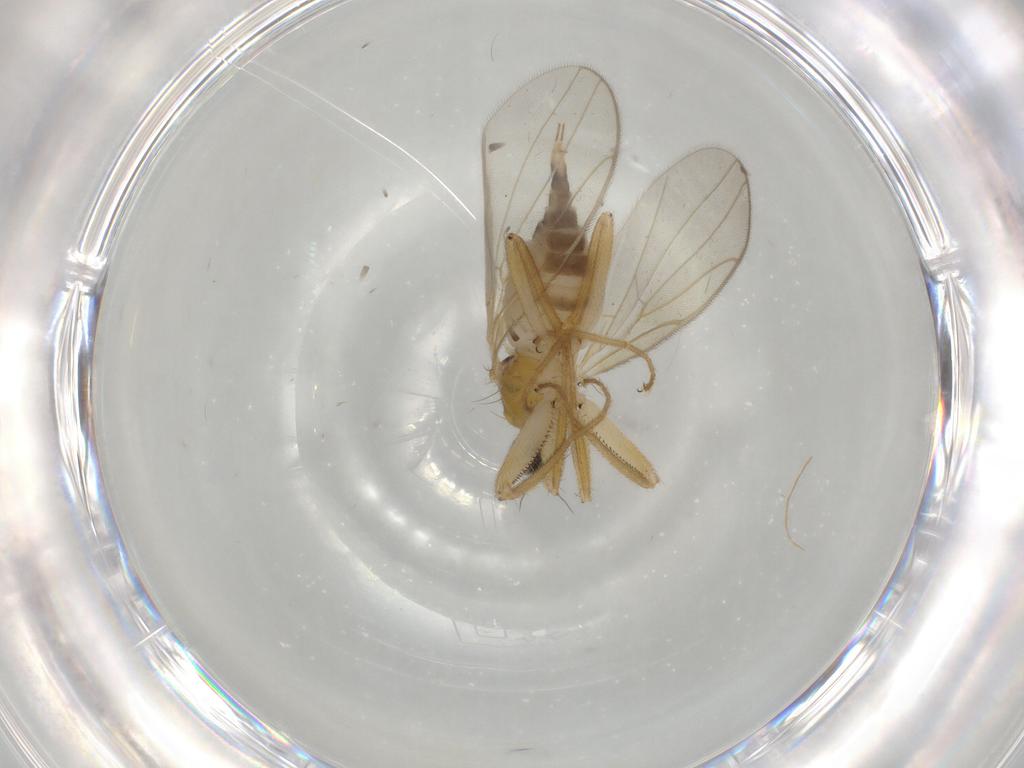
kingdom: Animalia
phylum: Arthropoda
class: Insecta
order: Diptera
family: Hybotidae
